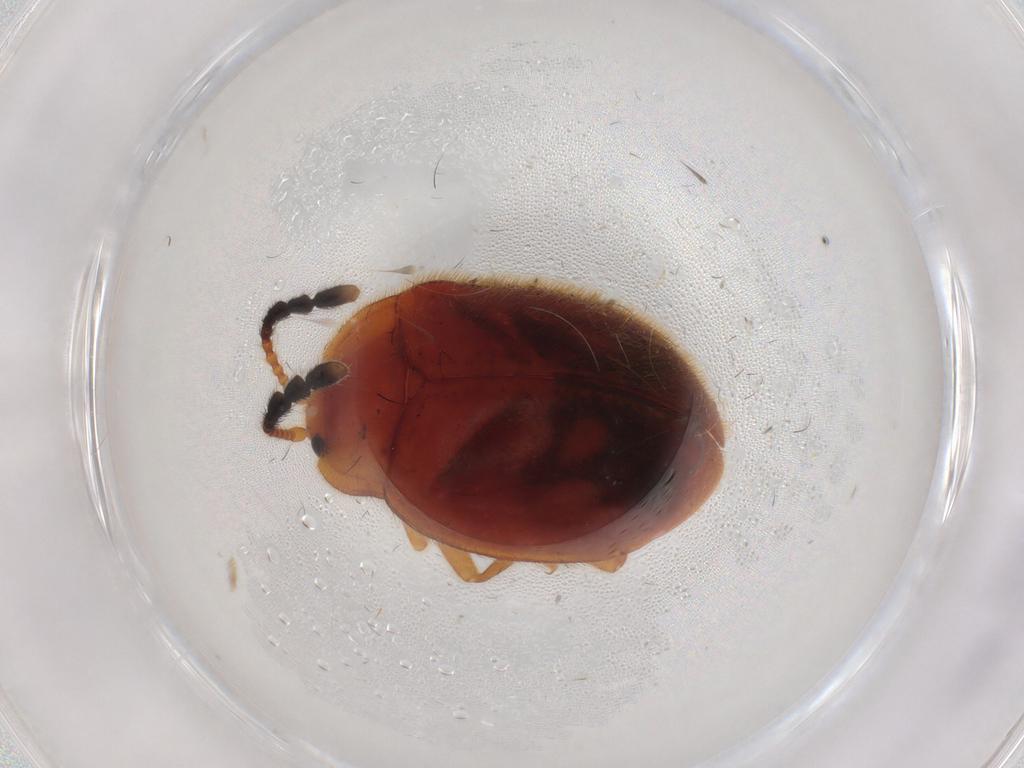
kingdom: Animalia
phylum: Arthropoda
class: Insecta
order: Coleoptera
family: Endomychidae
